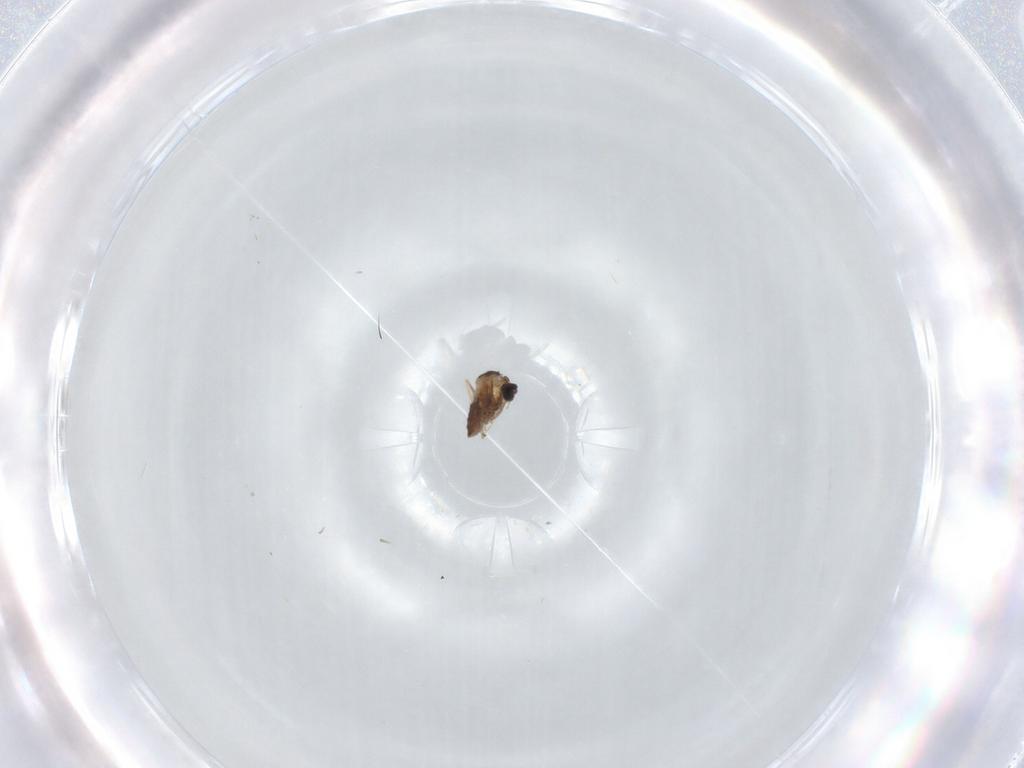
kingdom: Animalia
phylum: Arthropoda
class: Insecta
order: Diptera
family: Cecidomyiidae
